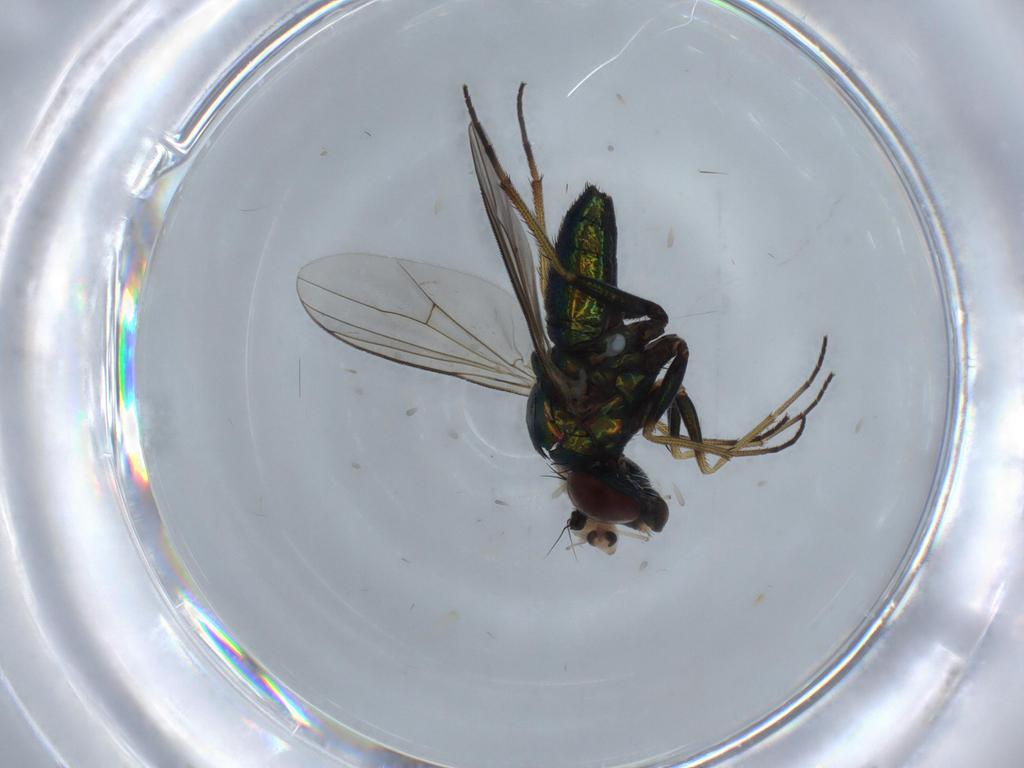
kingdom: Animalia
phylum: Arthropoda
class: Insecta
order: Diptera
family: Dolichopodidae
